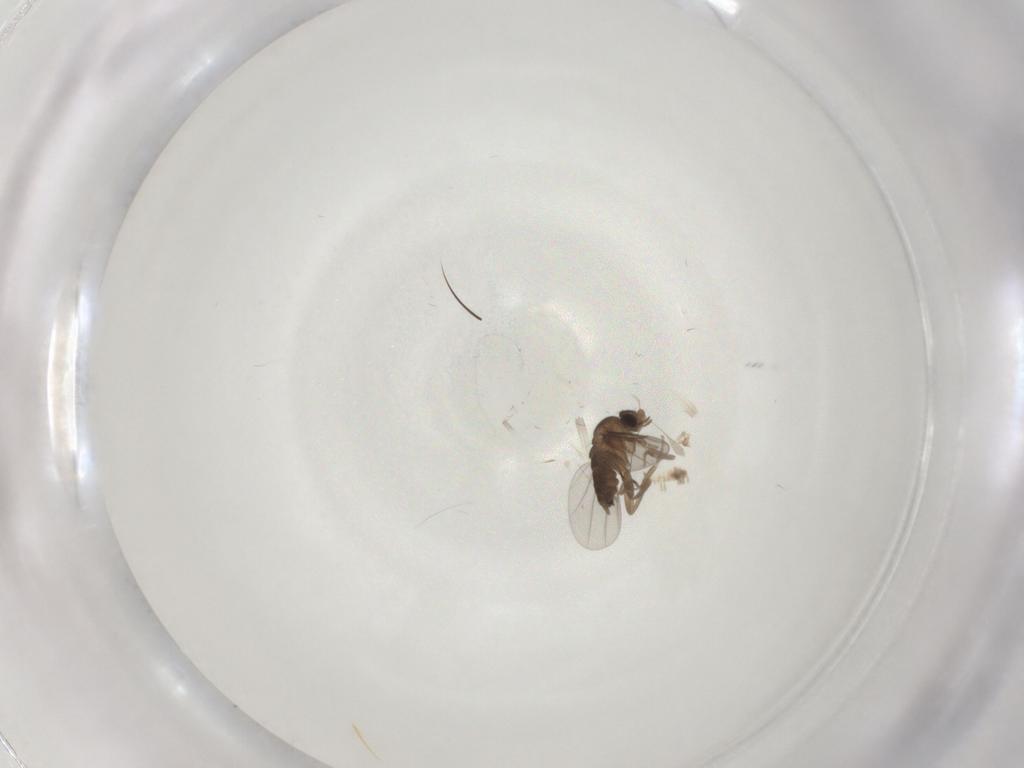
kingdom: Animalia
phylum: Arthropoda
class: Insecta
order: Diptera
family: Phoridae
